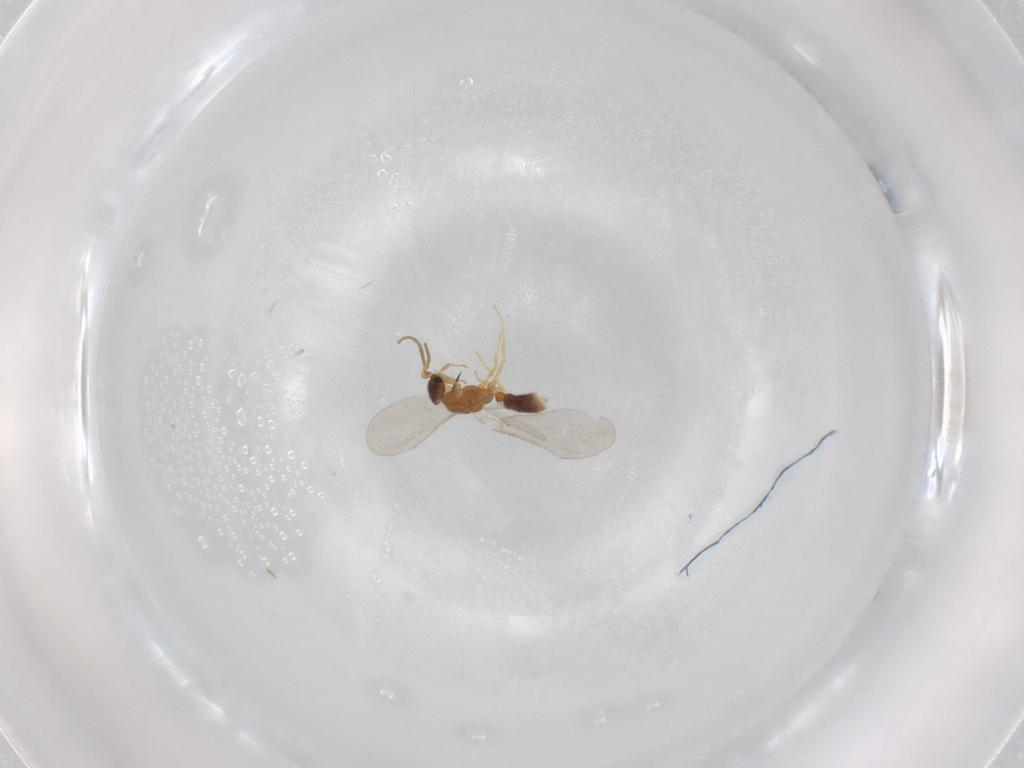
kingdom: Animalia
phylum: Arthropoda
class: Insecta
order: Hymenoptera
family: Formicidae
